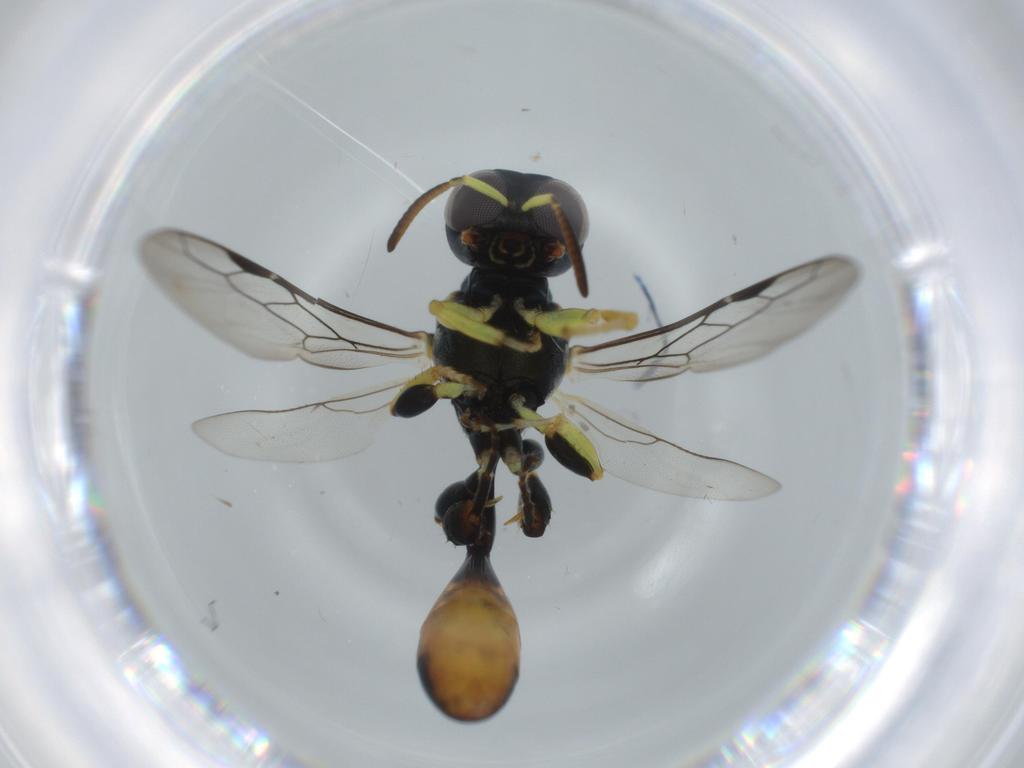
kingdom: Animalia
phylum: Arthropoda
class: Insecta
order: Hymenoptera
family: Crabronidae
